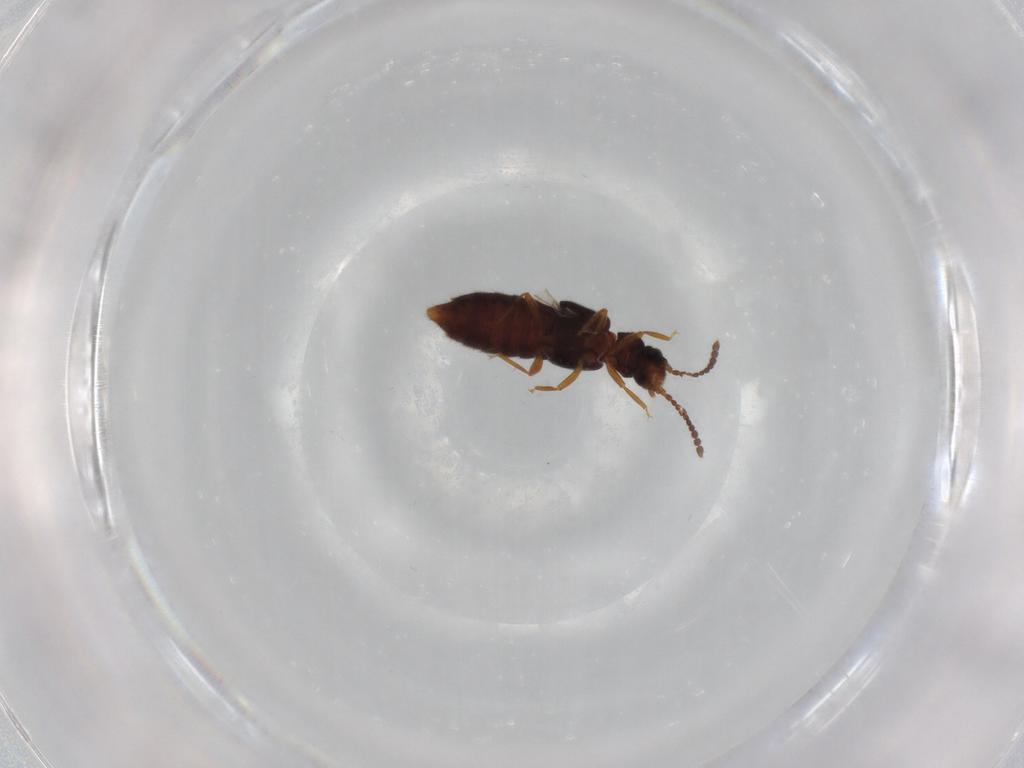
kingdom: Animalia
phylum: Arthropoda
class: Insecta
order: Coleoptera
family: Staphylinidae
